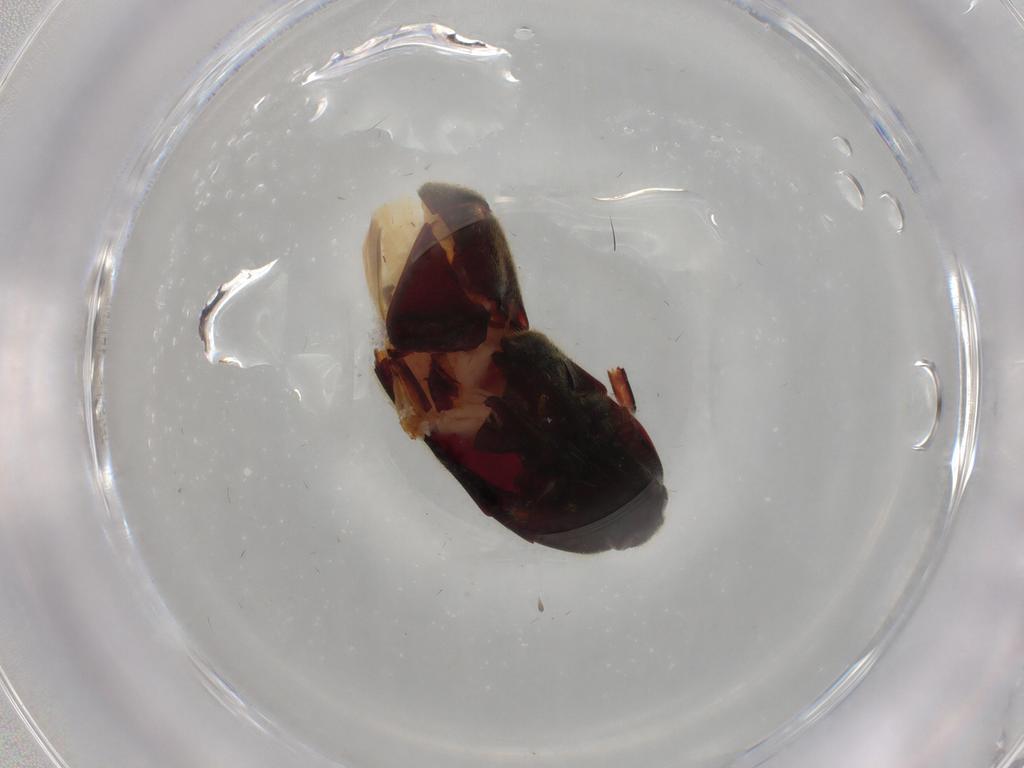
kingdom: Animalia
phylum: Arthropoda
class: Insecta
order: Coleoptera
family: Throscidae
